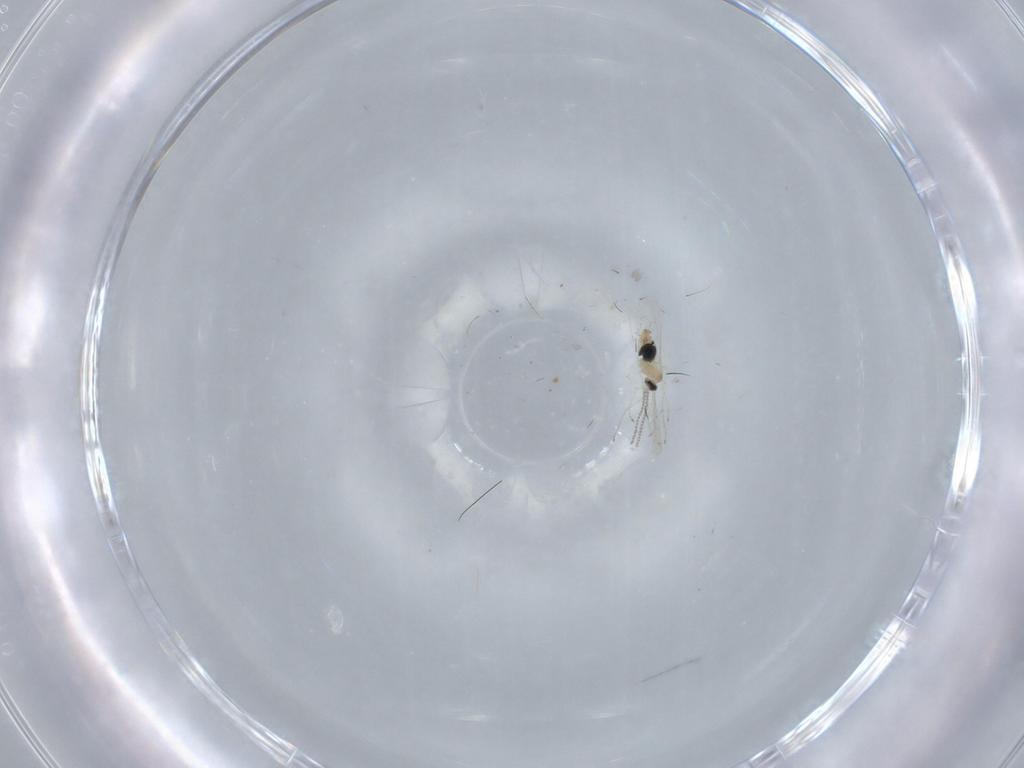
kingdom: Animalia
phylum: Arthropoda
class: Insecta
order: Diptera
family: Cecidomyiidae
